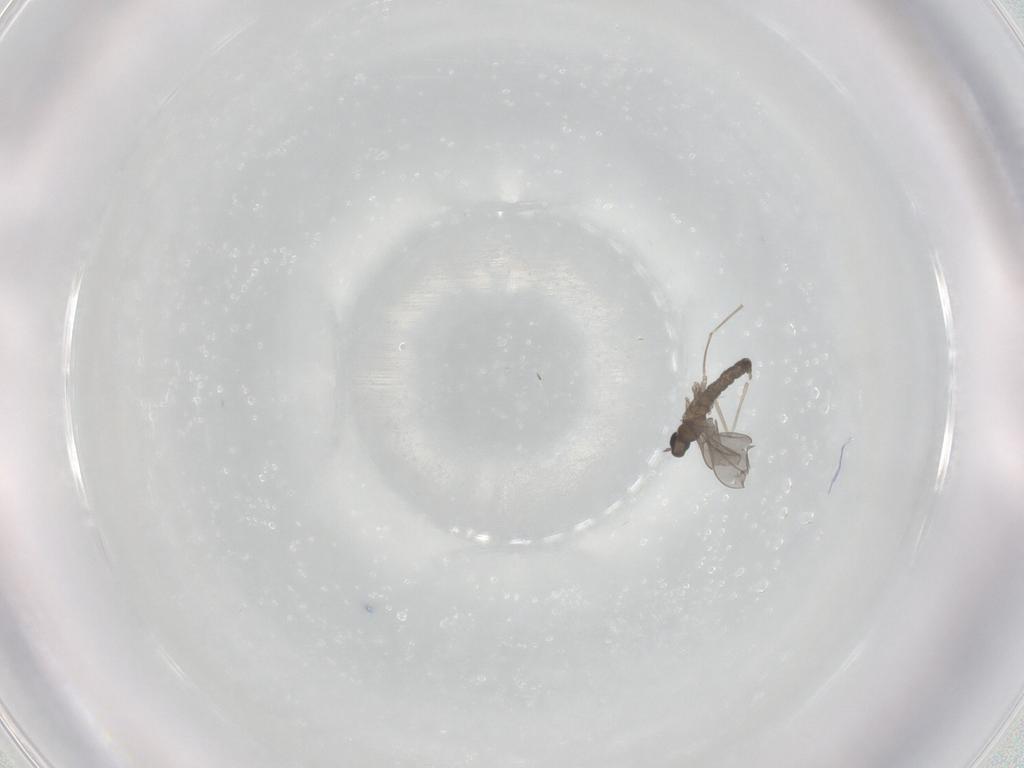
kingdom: Animalia
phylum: Arthropoda
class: Insecta
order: Diptera
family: Chironomidae
